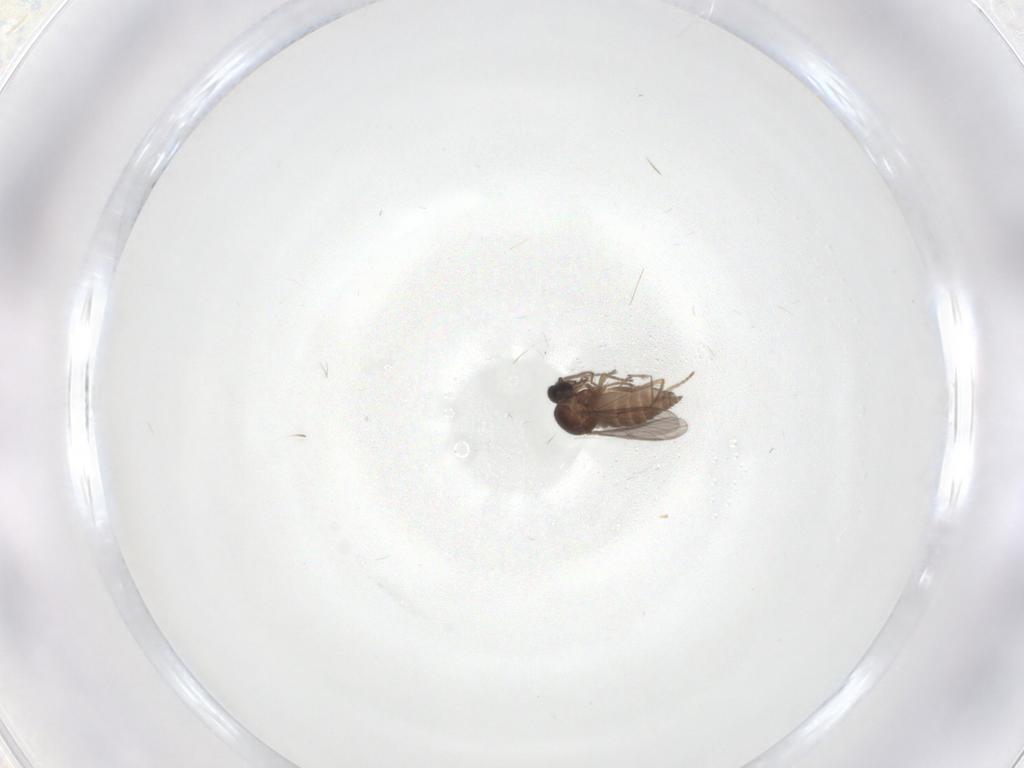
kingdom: Animalia
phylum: Arthropoda
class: Insecta
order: Diptera
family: Ceratopogonidae
